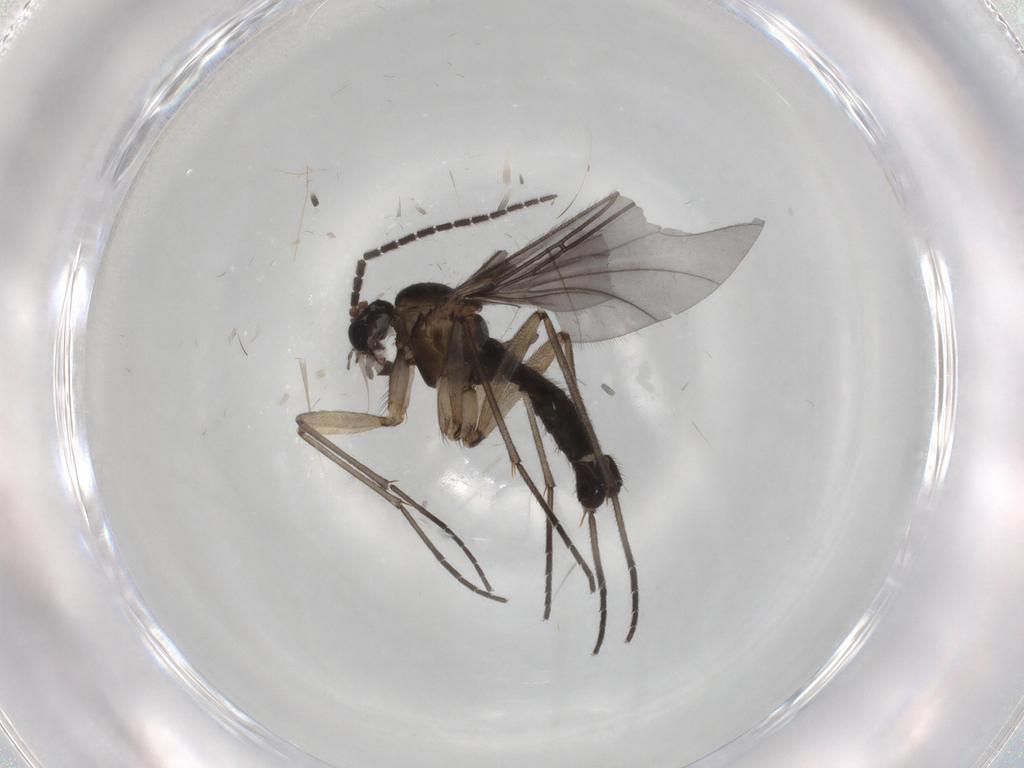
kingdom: Animalia
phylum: Arthropoda
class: Insecta
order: Diptera
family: Sciaridae
